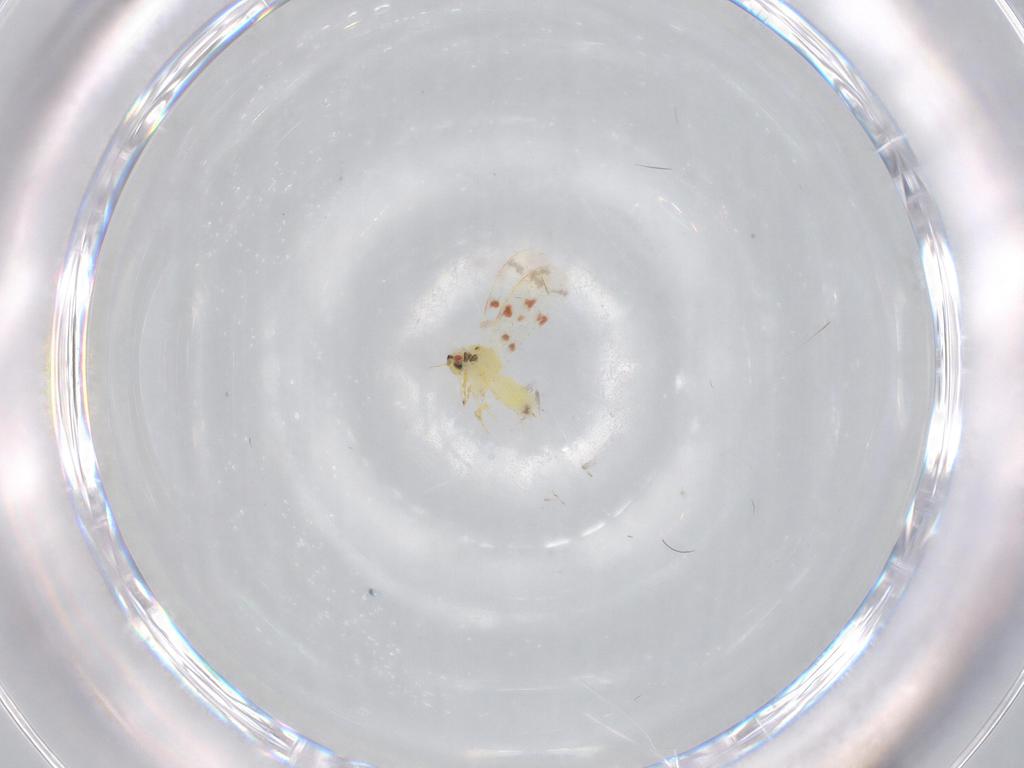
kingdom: Animalia
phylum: Arthropoda
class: Insecta
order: Hemiptera
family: Aleyrodidae
